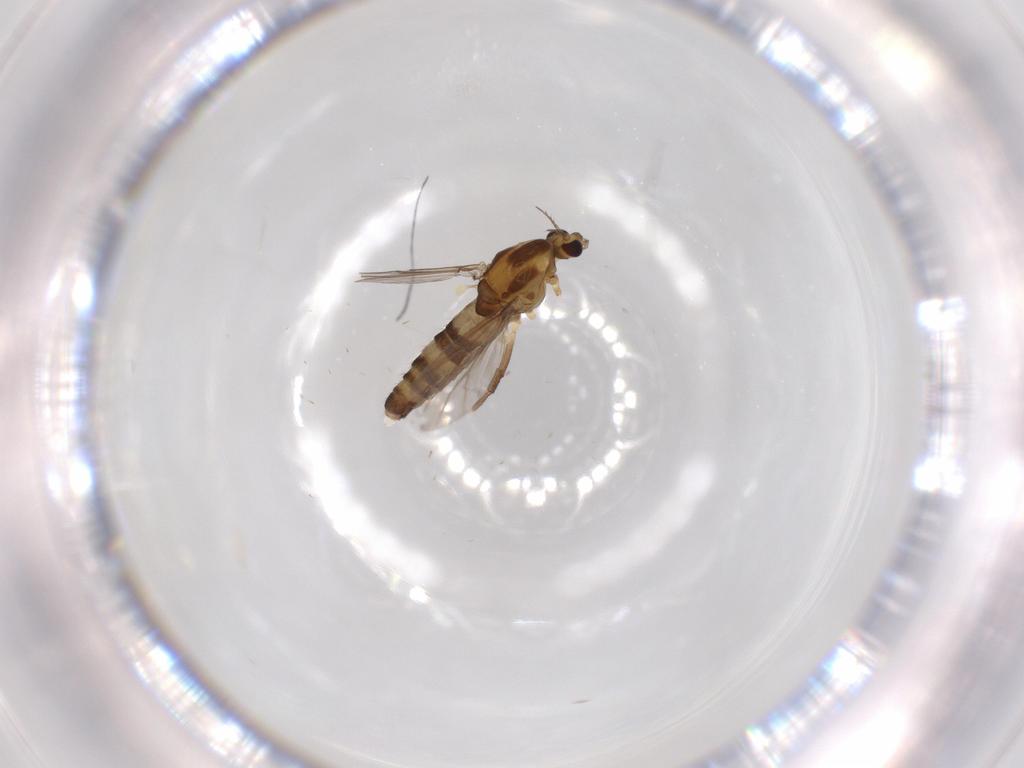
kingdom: Animalia
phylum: Arthropoda
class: Insecta
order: Diptera
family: Chironomidae
